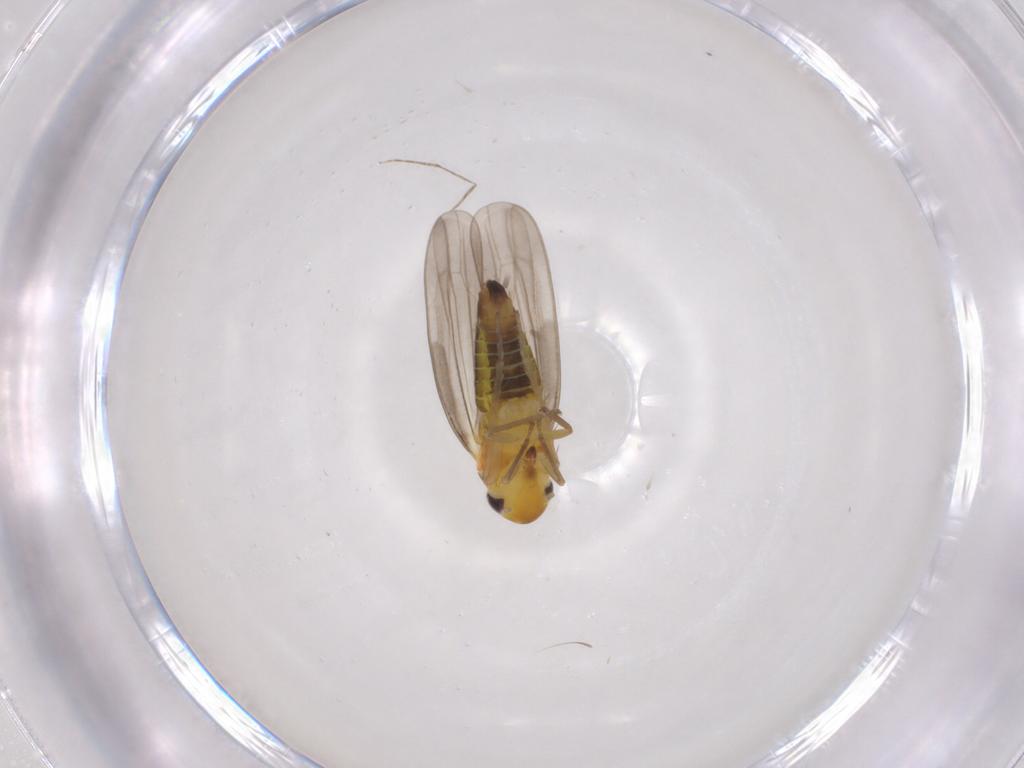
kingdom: Animalia
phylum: Arthropoda
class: Insecta
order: Hemiptera
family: Cicadellidae
